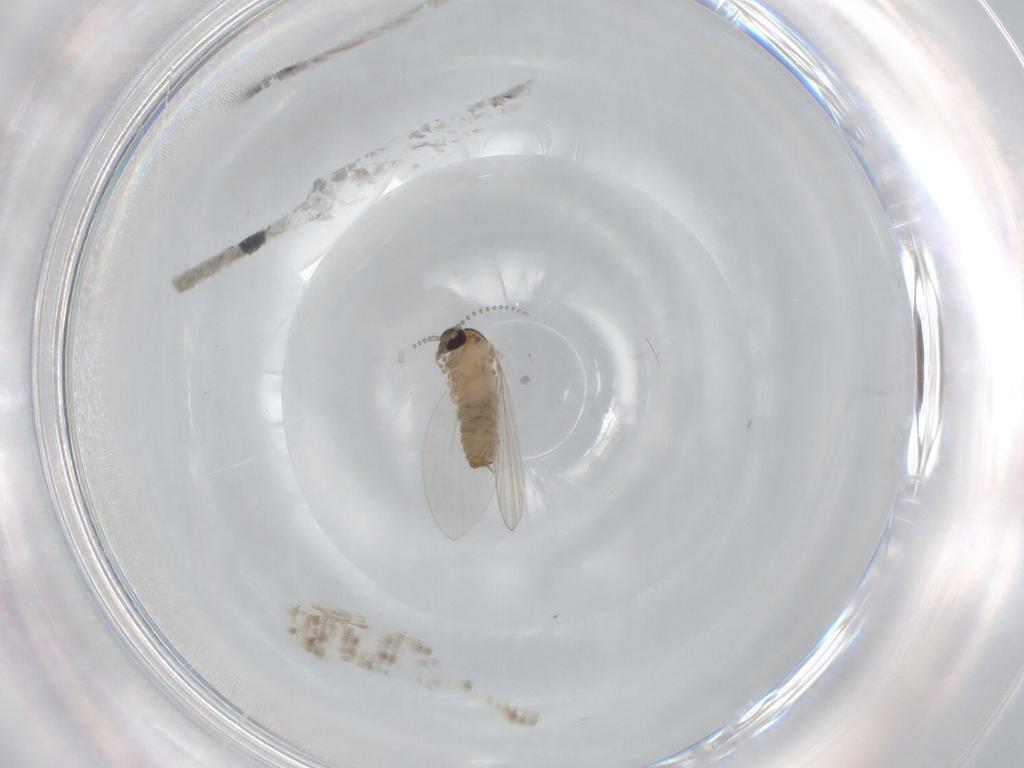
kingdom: Animalia
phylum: Arthropoda
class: Insecta
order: Diptera
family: Psychodidae
